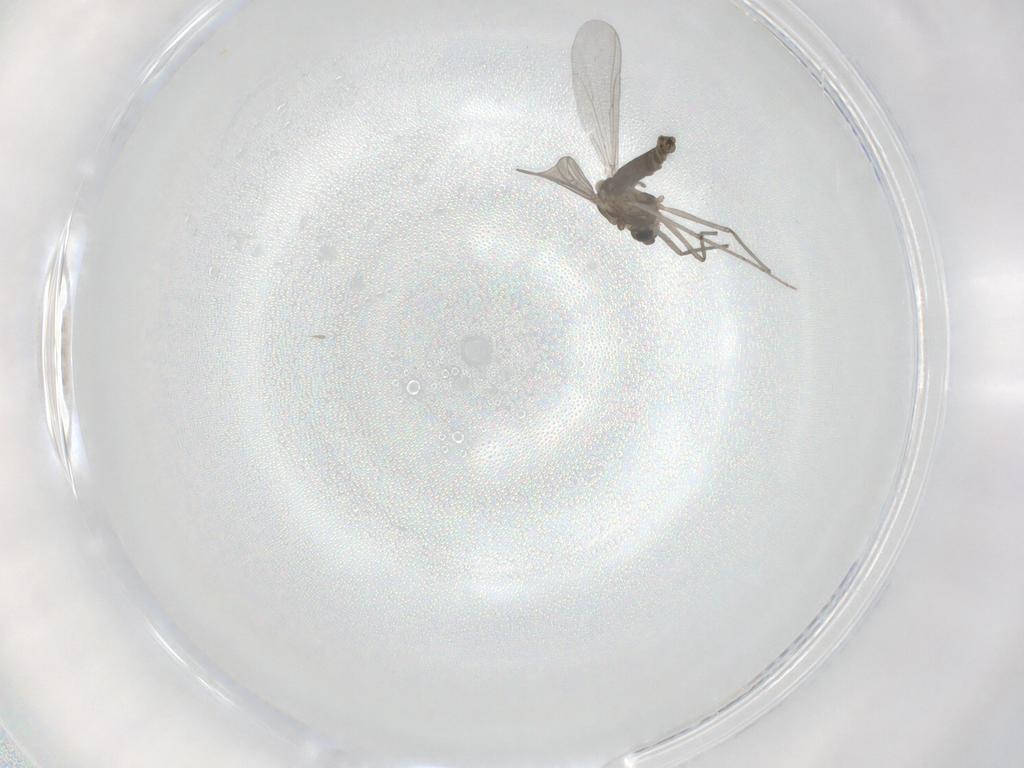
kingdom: Animalia
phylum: Arthropoda
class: Insecta
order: Diptera
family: Chironomidae
